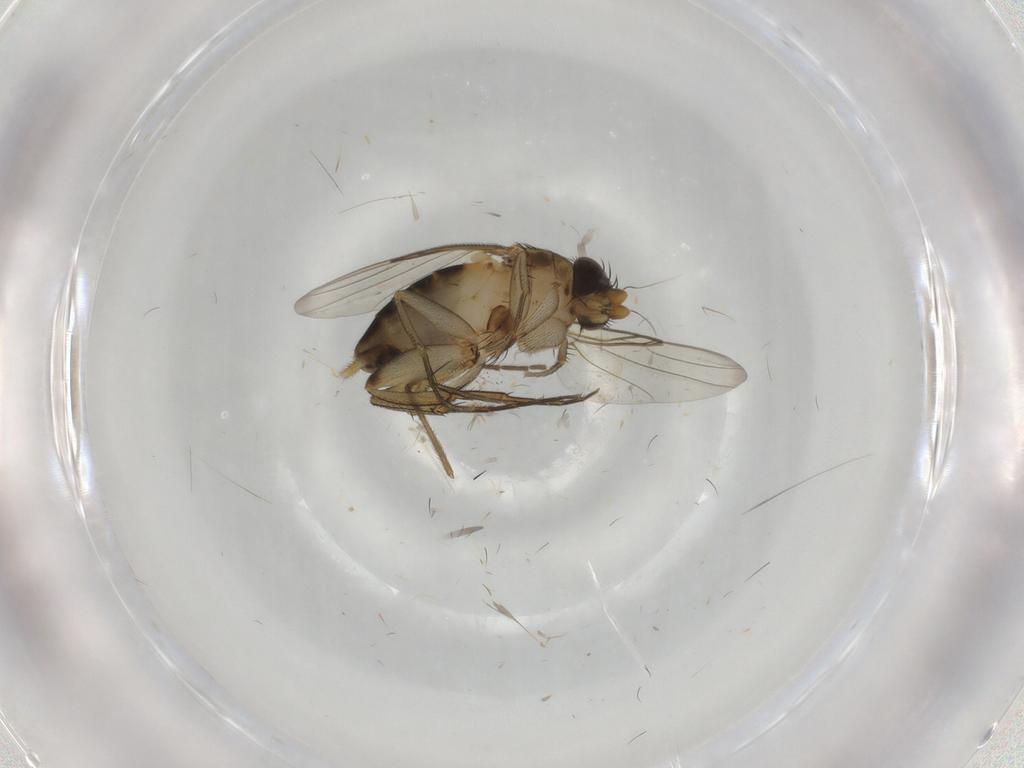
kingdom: Animalia
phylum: Arthropoda
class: Insecta
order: Diptera
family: Phoridae
